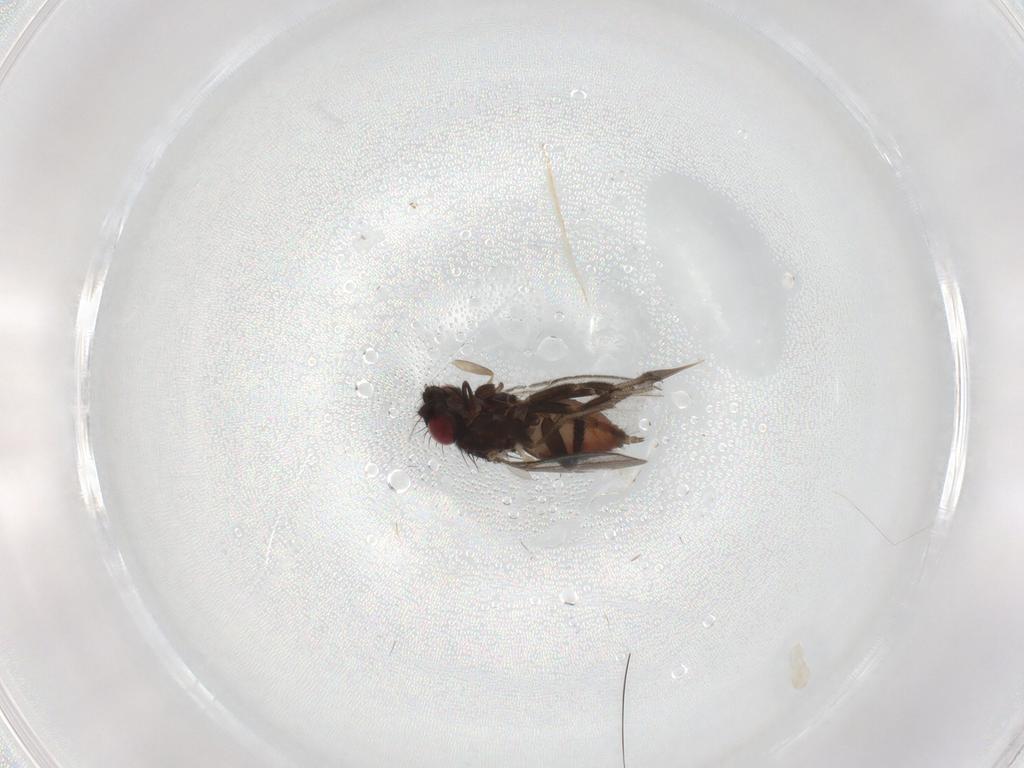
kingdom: Animalia
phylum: Arthropoda
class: Insecta
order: Diptera
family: Milichiidae
